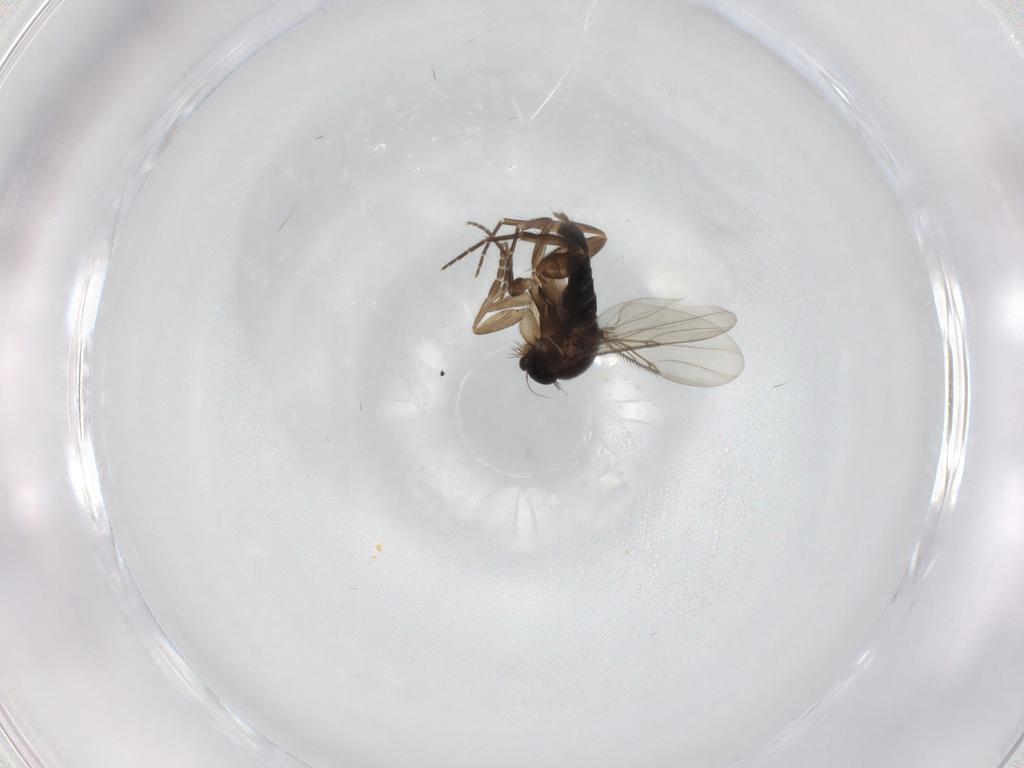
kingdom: Animalia
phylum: Arthropoda
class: Insecta
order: Diptera
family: Phoridae
